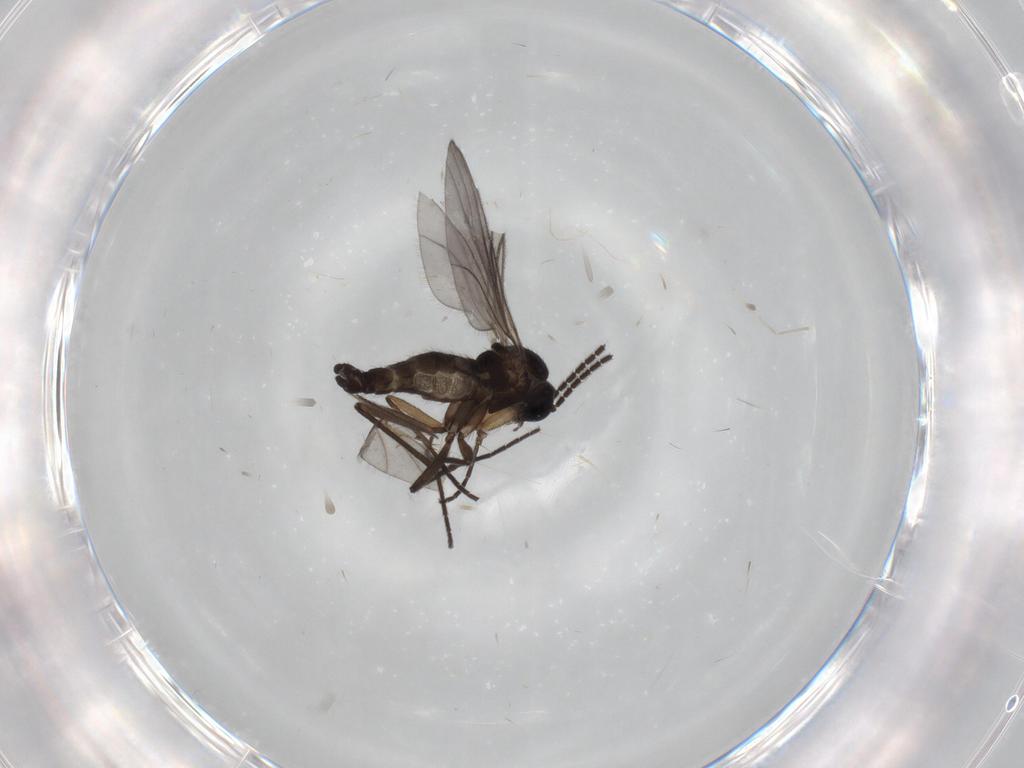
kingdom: Animalia
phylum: Arthropoda
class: Insecta
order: Diptera
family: Sciaridae
